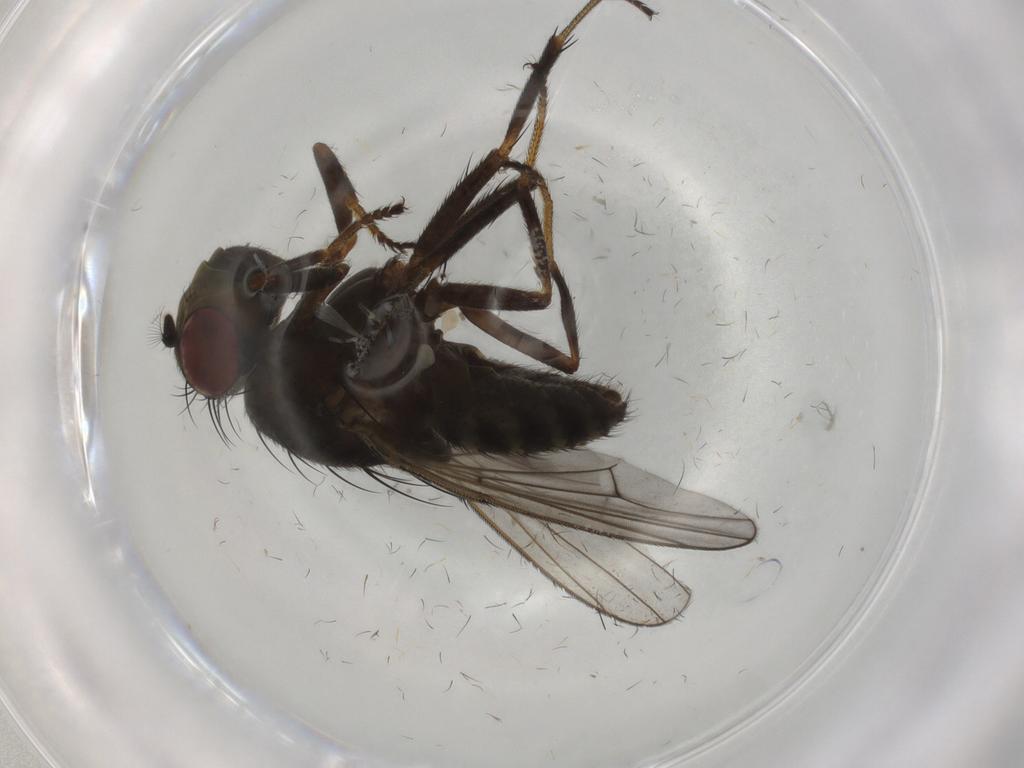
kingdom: Animalia
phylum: Arthropoda
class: Insecta
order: Diptera
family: Ephydridae
